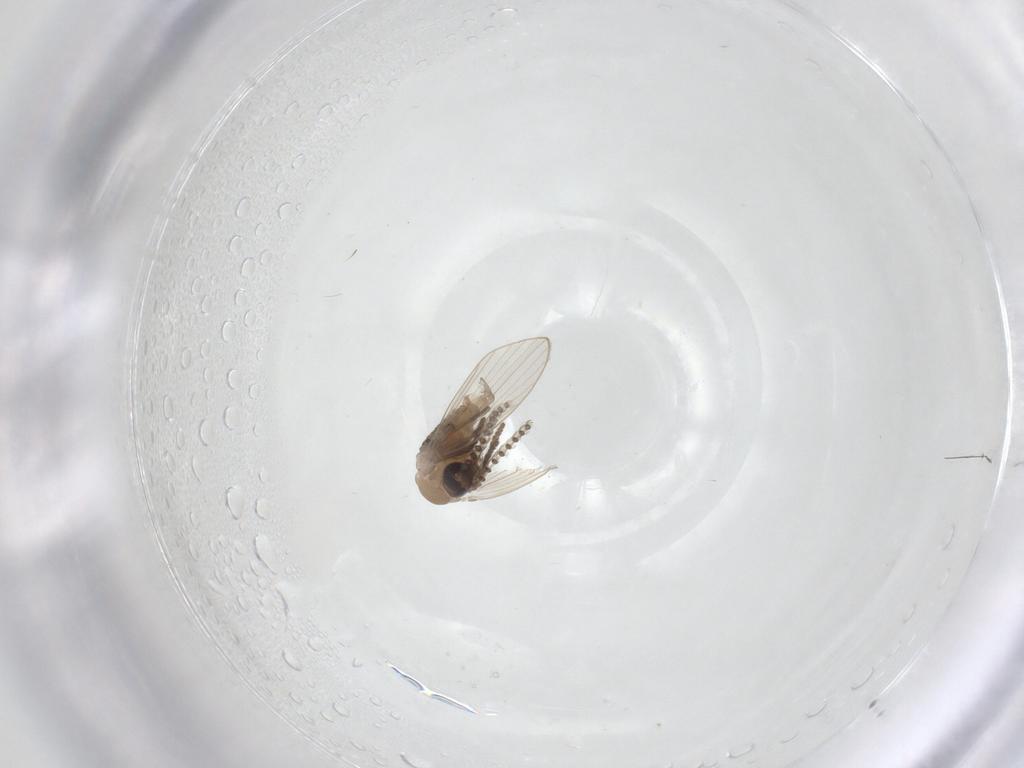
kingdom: Animalia
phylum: Arthropoda
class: Insecta
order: Diptera
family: Psychodidae
